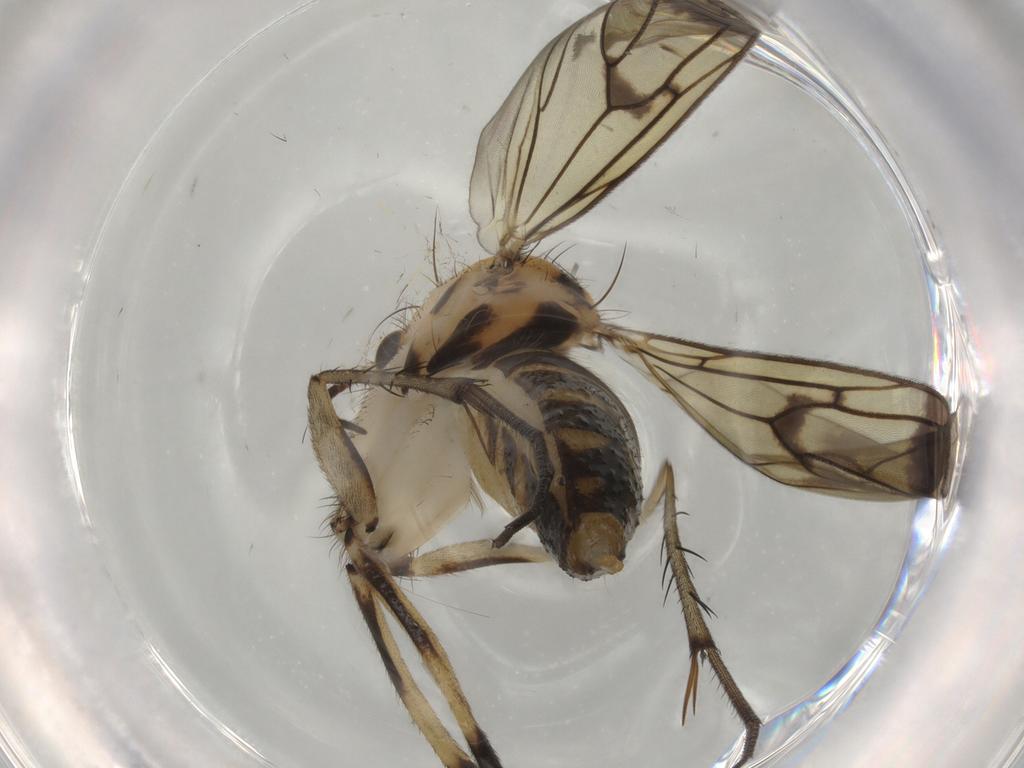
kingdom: Animalia
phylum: Arthropoda
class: Insecta
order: Diptera
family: Mycetophilidae
